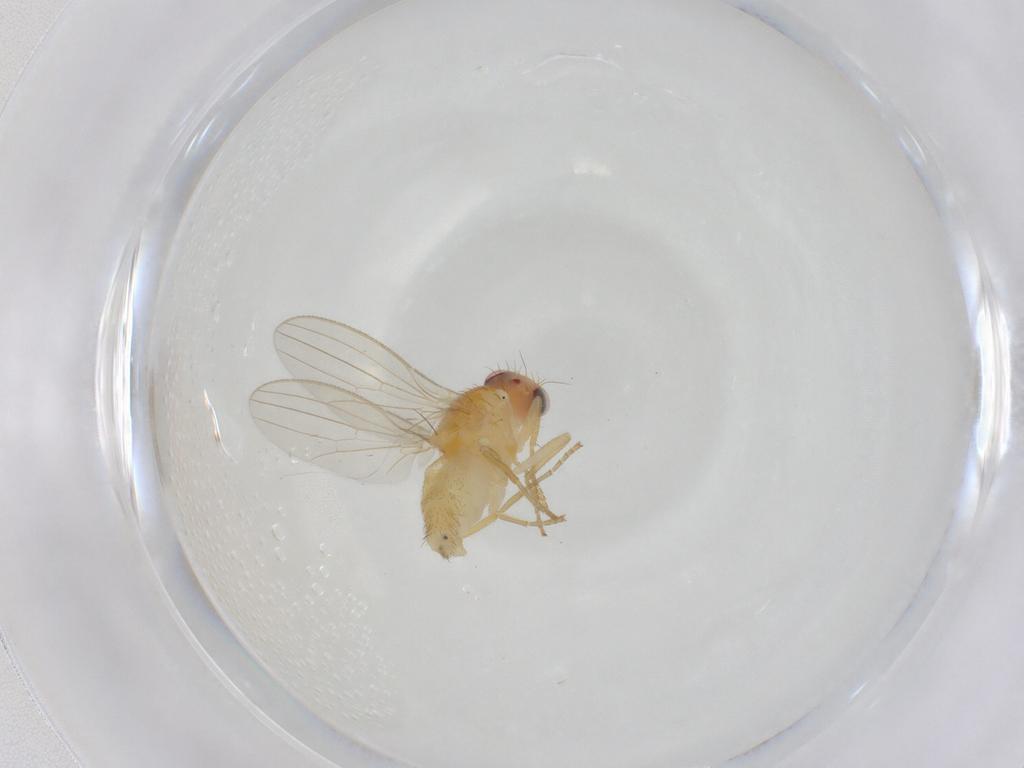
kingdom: Animalia
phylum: Arthropoda
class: Insecta
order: Diptera
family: Chyromyidae
